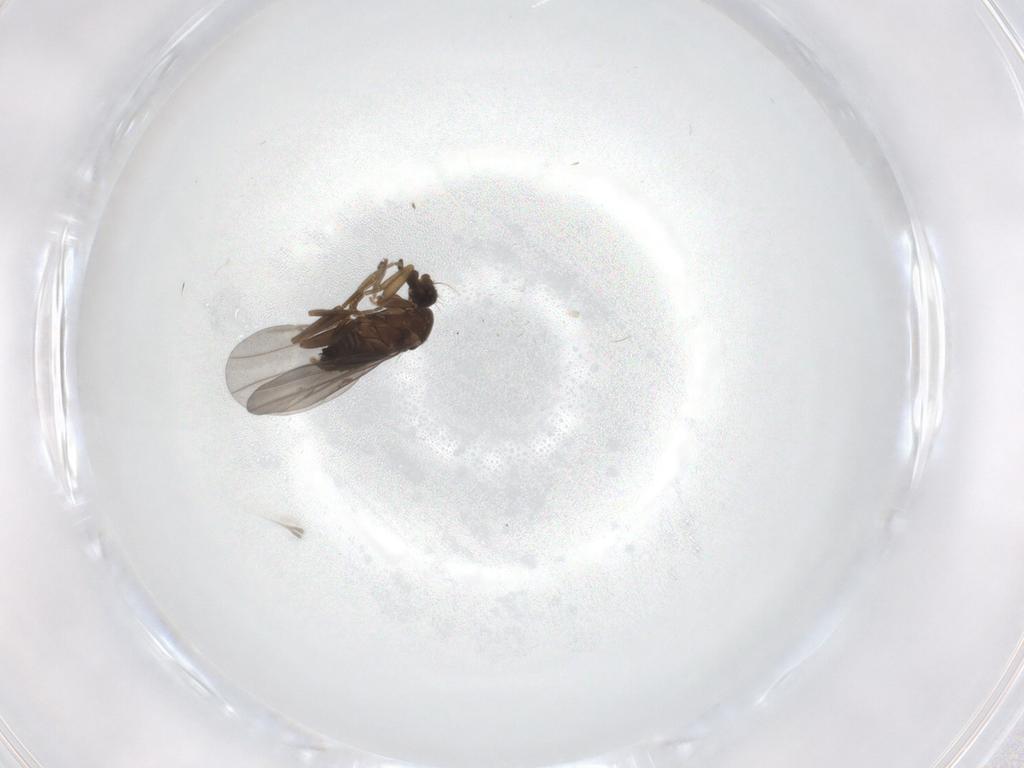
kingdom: Animalia
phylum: Arthropoda
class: Insecta
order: Diptera
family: Chironomidae
